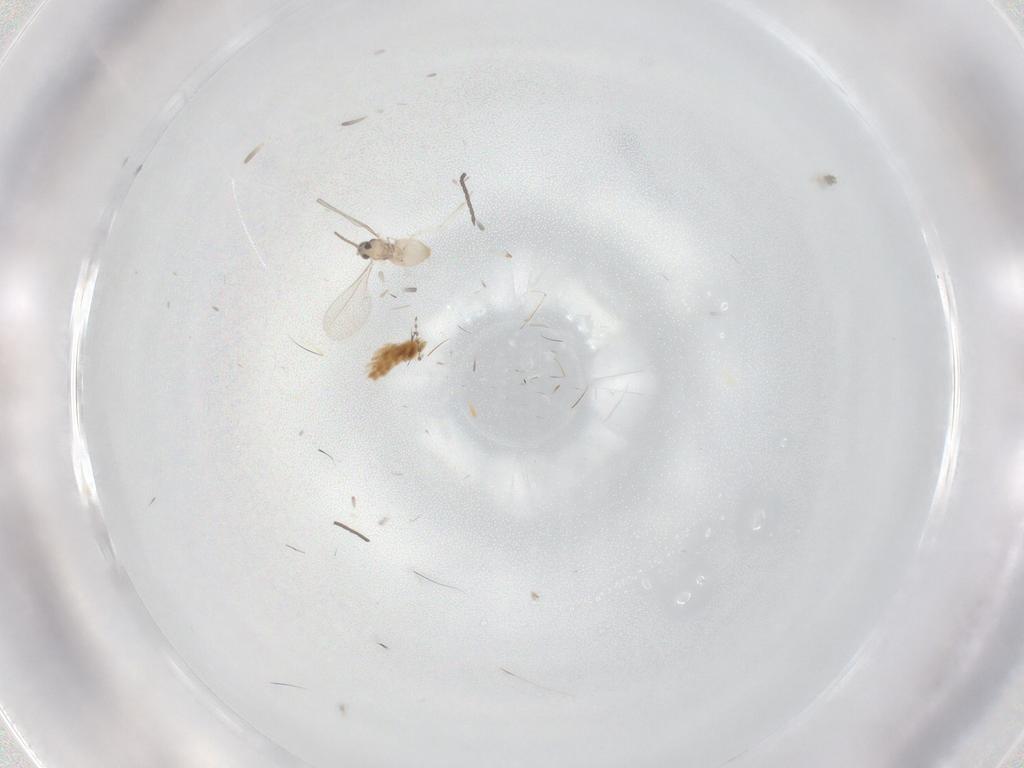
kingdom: Animalia
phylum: Arthropoda
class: Insecta
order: Diptera
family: Cecidomyiidae
